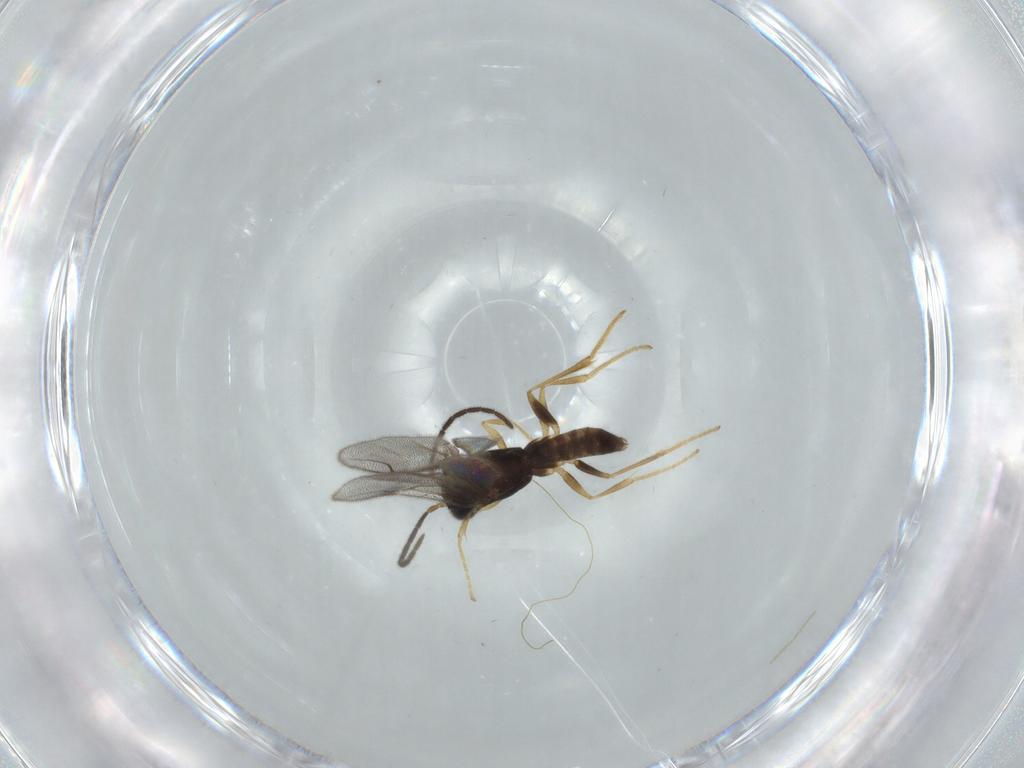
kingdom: Animalia
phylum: Arthropoda
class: Insecta
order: Hymenoptera
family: Dryinidae
